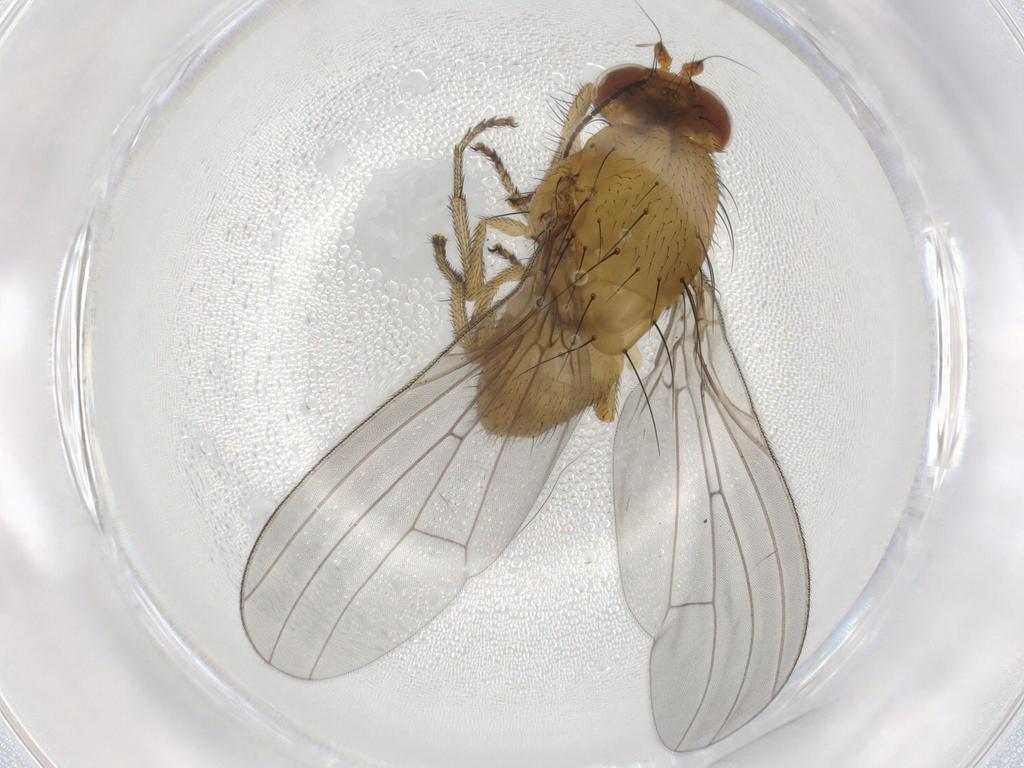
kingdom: Animalia
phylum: Arthropoda
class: Insecta
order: Diptera
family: Lauxaniidae
